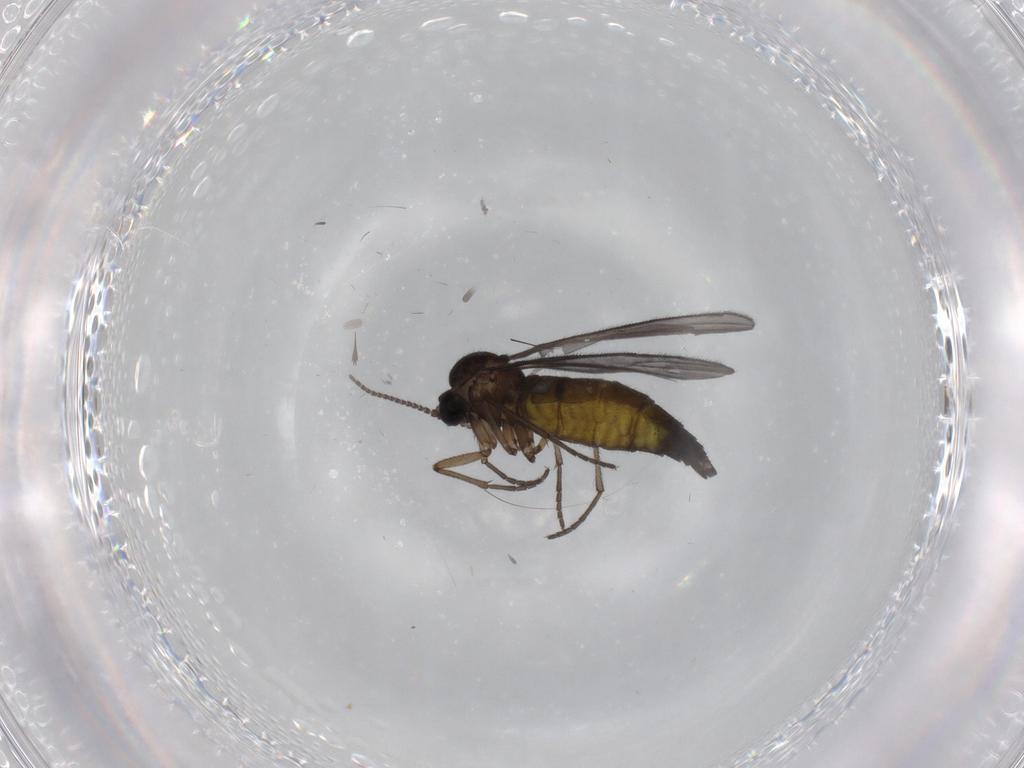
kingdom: Animalia
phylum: Arthropoda
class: Insecta
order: Diptera
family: Sciaridae
